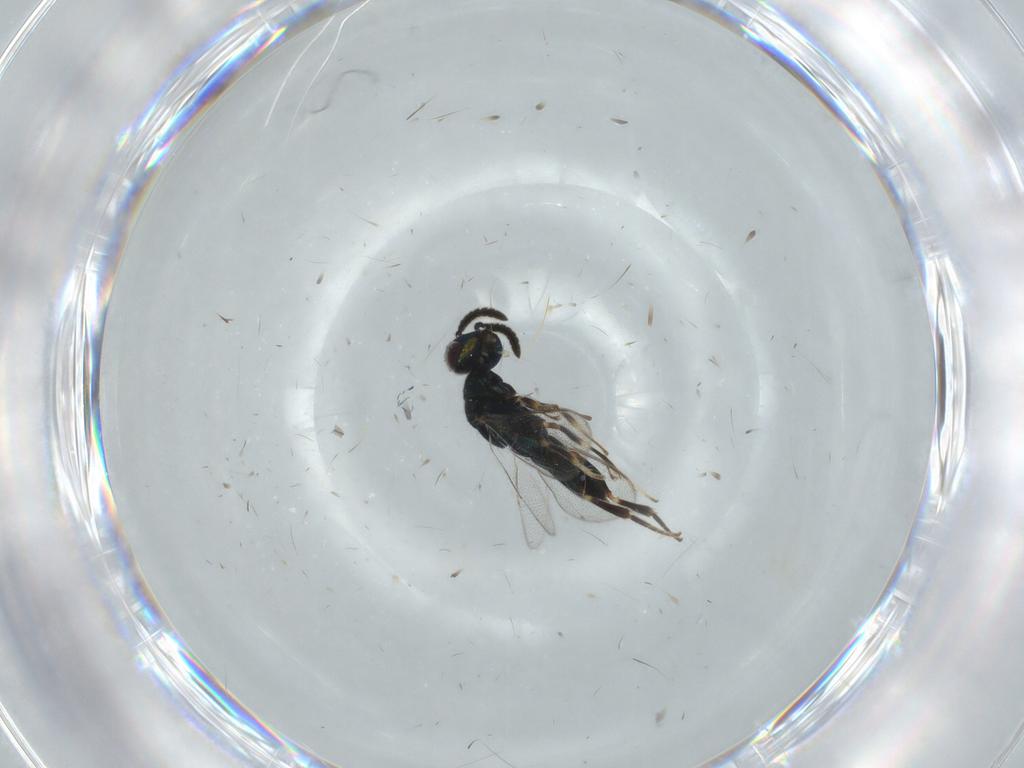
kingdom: Animalia
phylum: Arthropoda
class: Insecta
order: Hymenoptera
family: Cleonyminae
